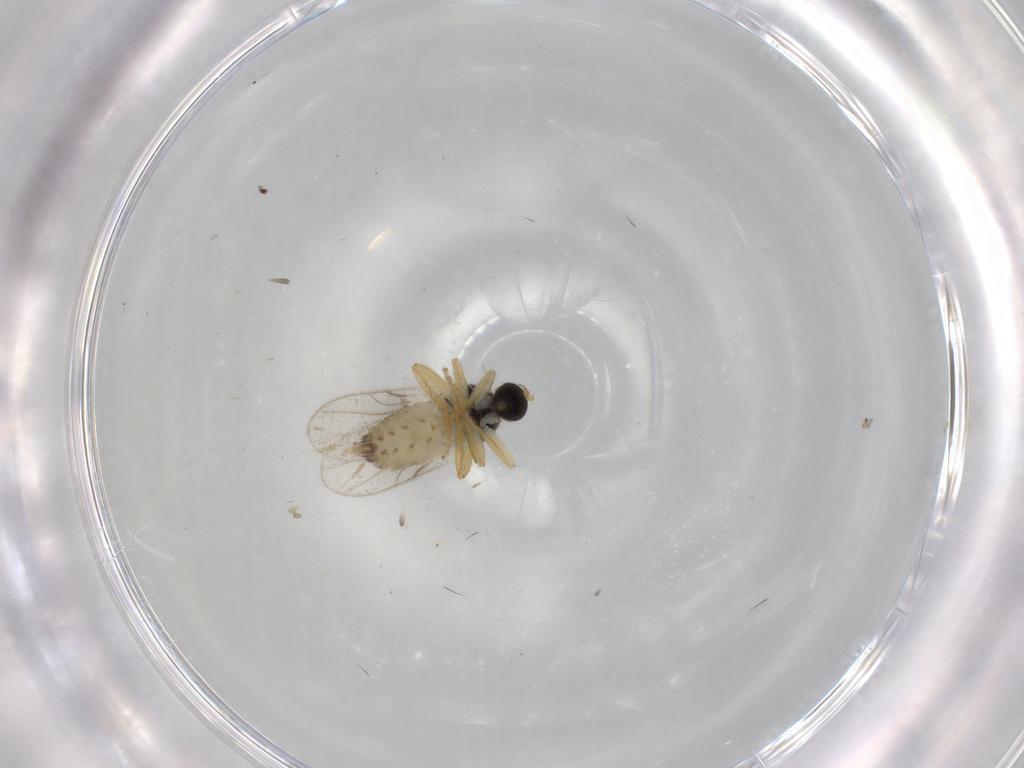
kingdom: Animalia
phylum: Arthropoda
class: Insecta
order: Diptera
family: Hybotidae
